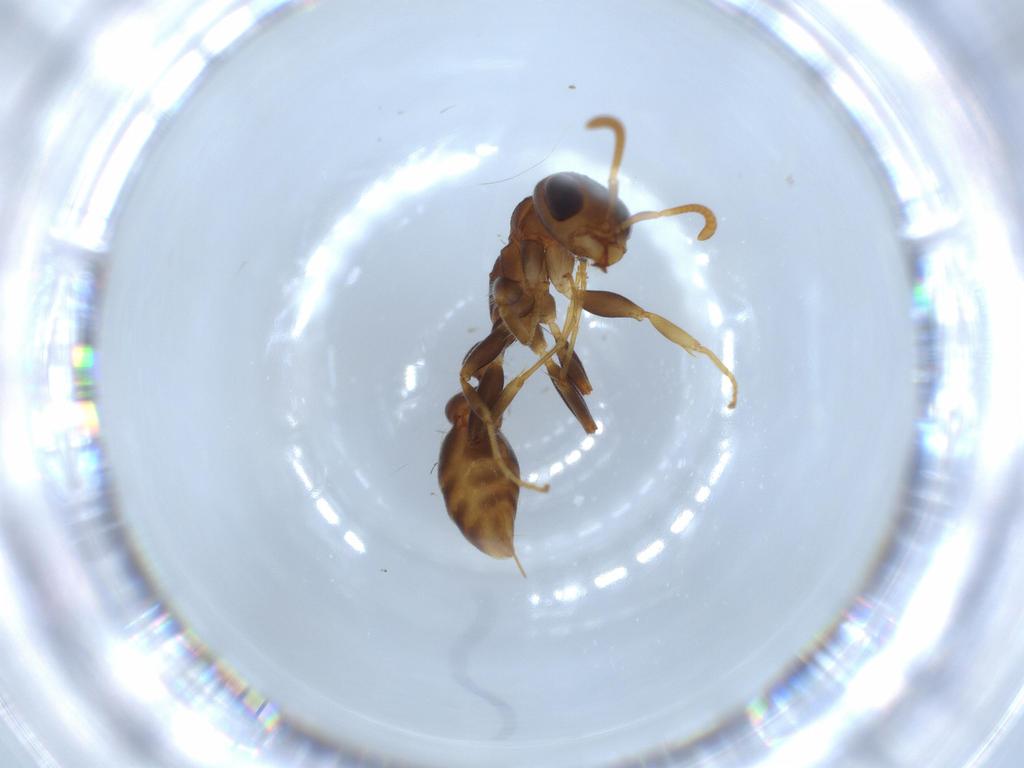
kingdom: Animalia
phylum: Arthropoda
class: Insecta
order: Hymenoptera
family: Formicidae
